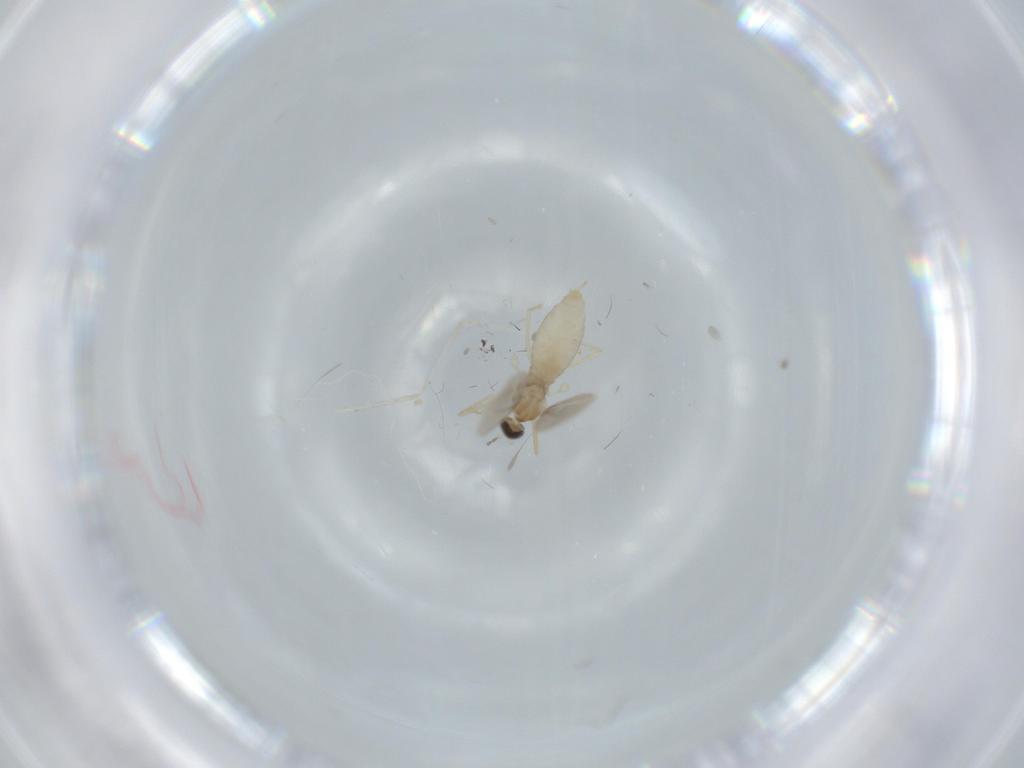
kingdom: Animalia
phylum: Arthropoda
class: Insecta
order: Diptera
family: Cecidomyiidae
